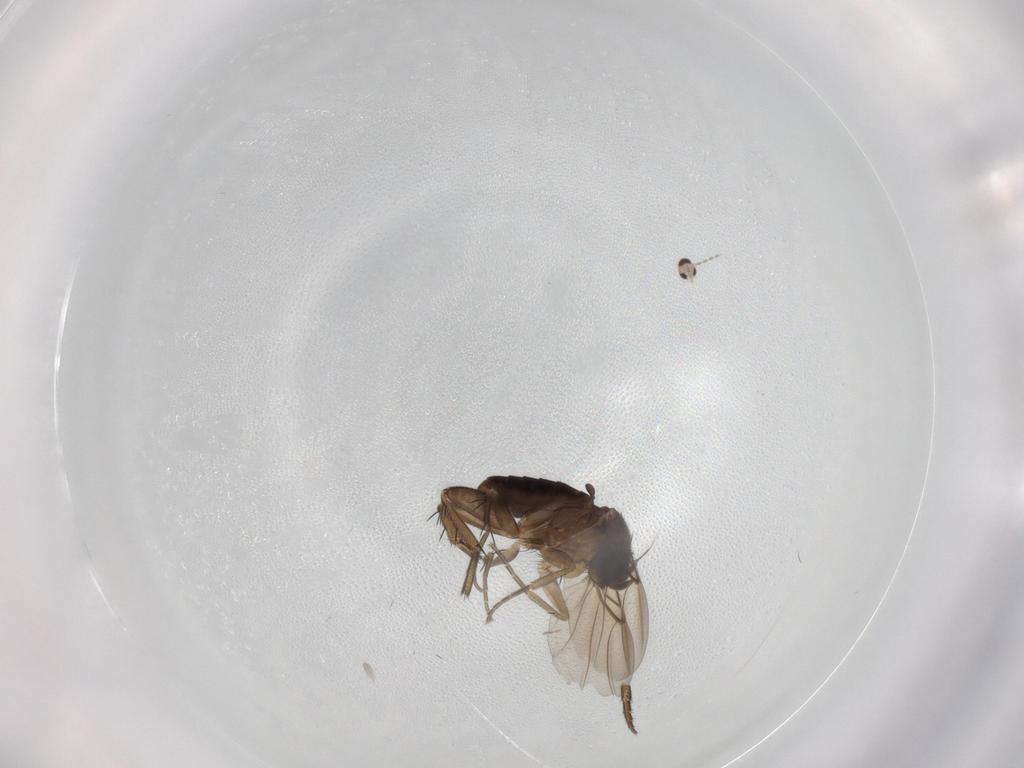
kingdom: Animalia
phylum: Arthropoda
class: Insecta
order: Diptera
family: Phoridae
